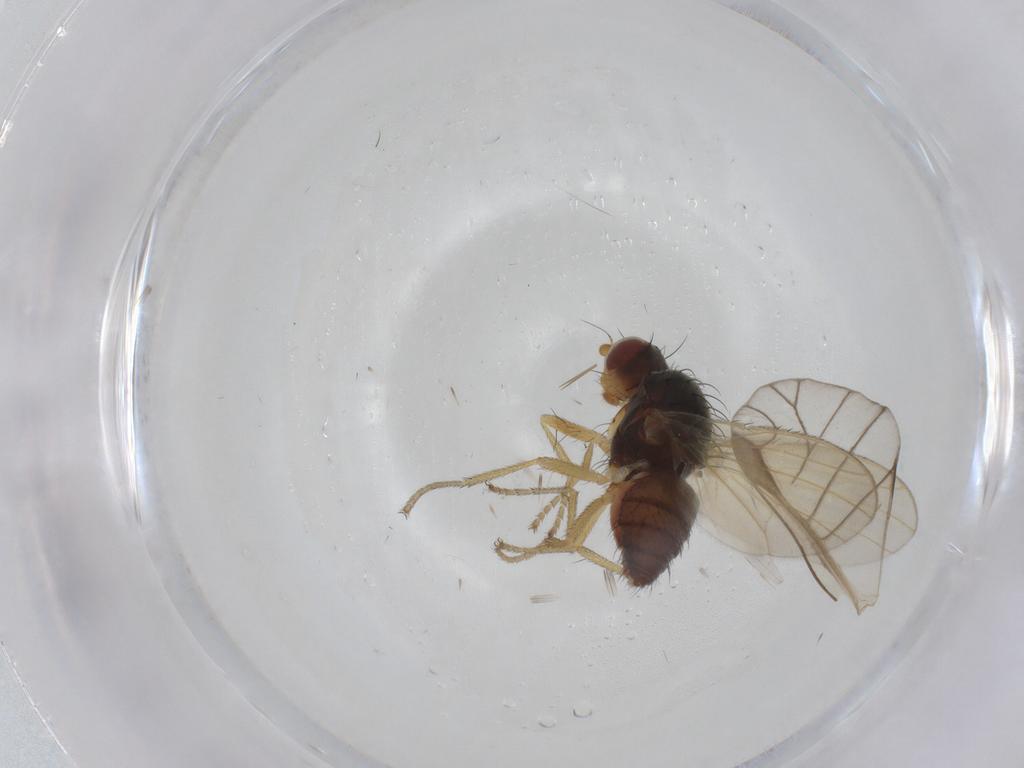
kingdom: Animalia
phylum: Arthropoda
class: Insecta
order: Diptera
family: Heleomyzidae
